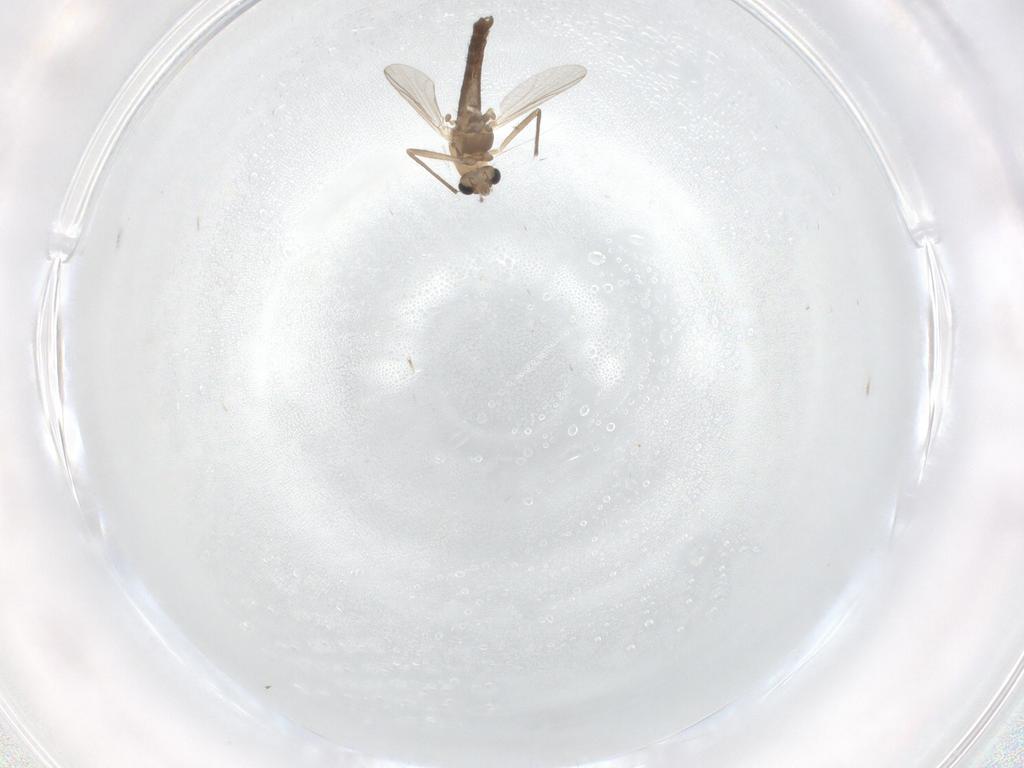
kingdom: Animalia
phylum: Arthropoda
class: Insecta
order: Diptera
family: Chironomidae
